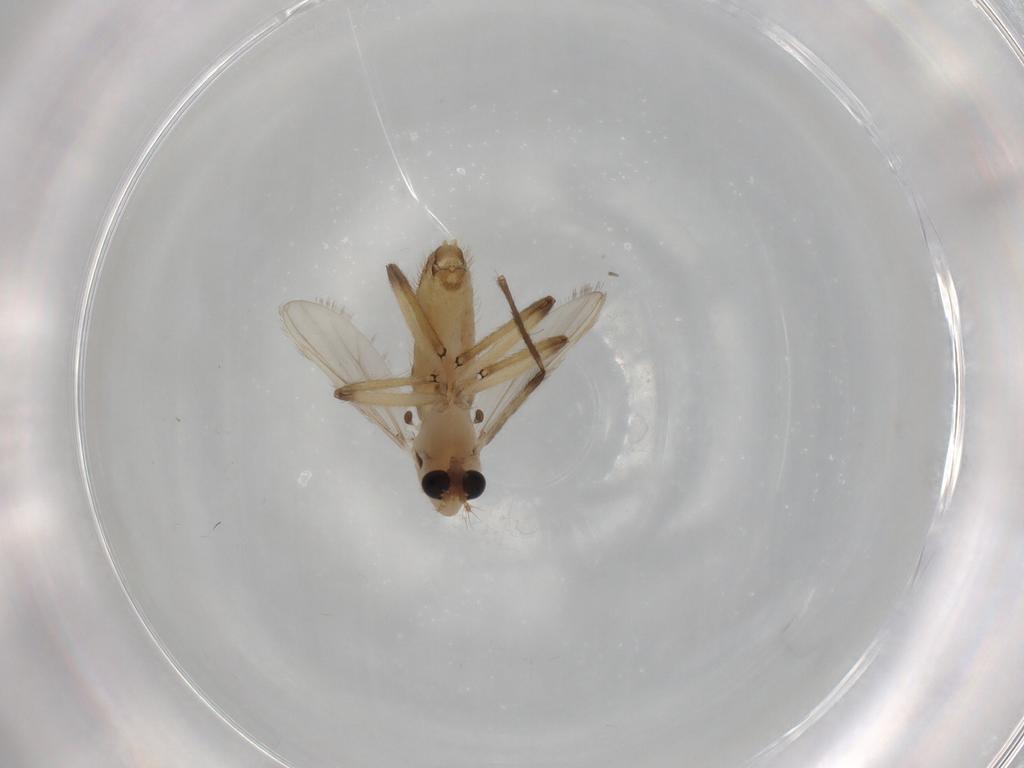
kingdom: Animalia
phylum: Arthropoda
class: Insecta
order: Diptera
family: Chironomidae
